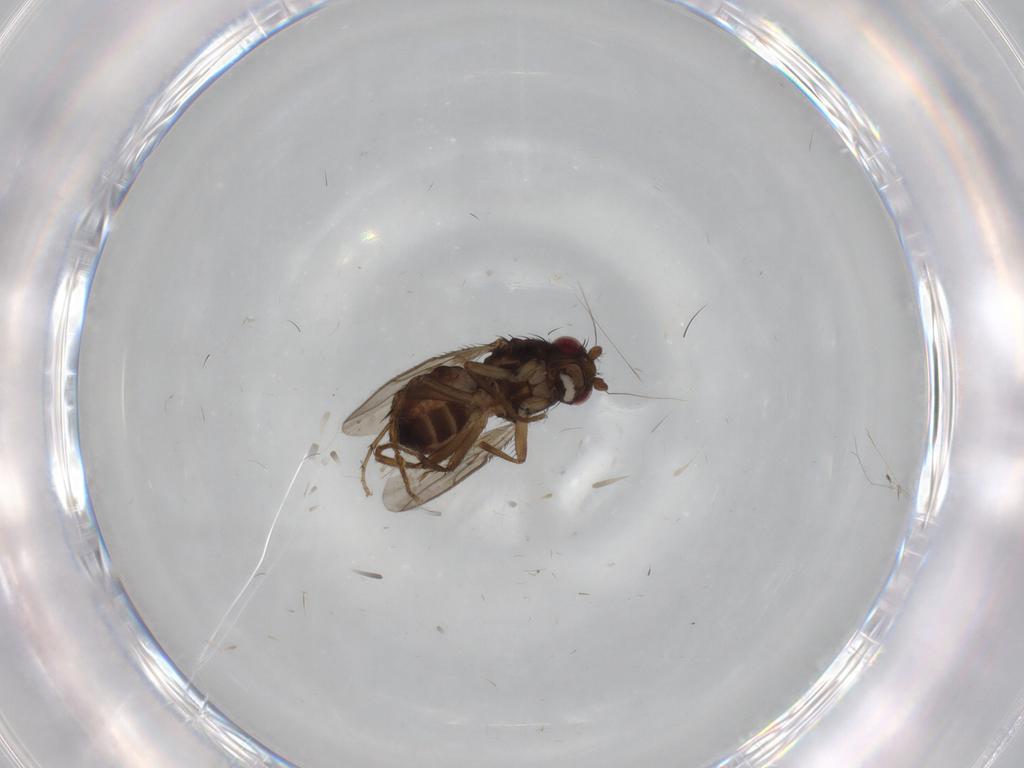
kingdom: Animalia
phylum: Arthropoda
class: Insecta
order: Diptera
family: Sphaeroceridae
